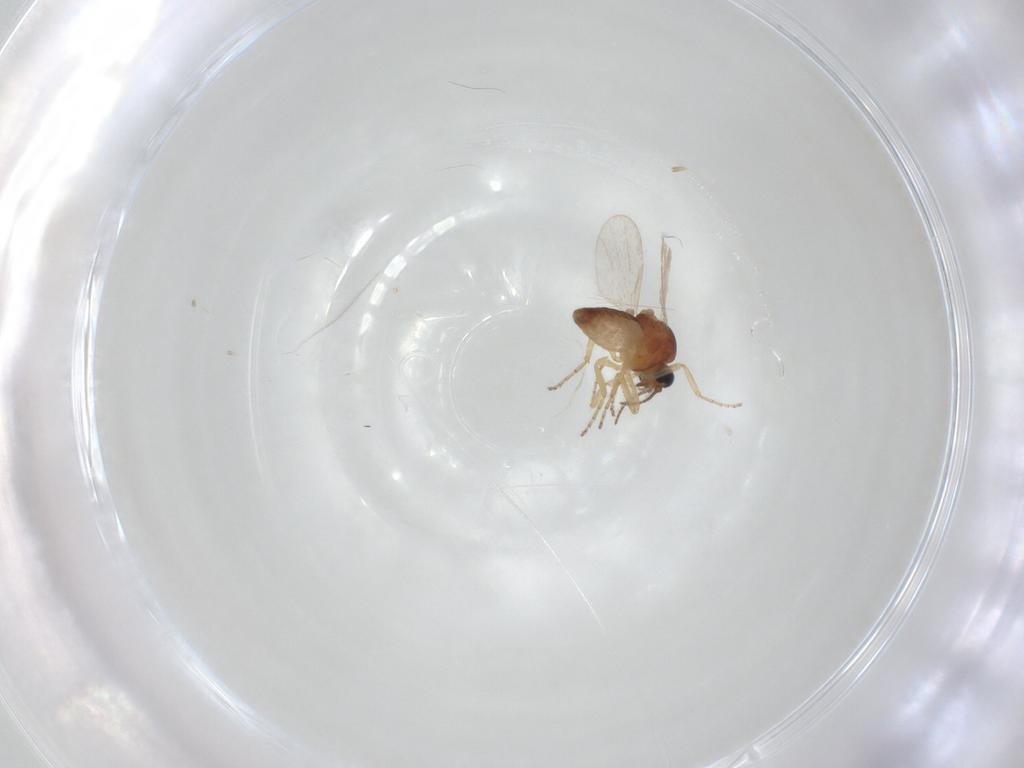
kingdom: Animalia
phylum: Arthropoda
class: Insecta
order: Diptera
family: Ceratopogonidae
